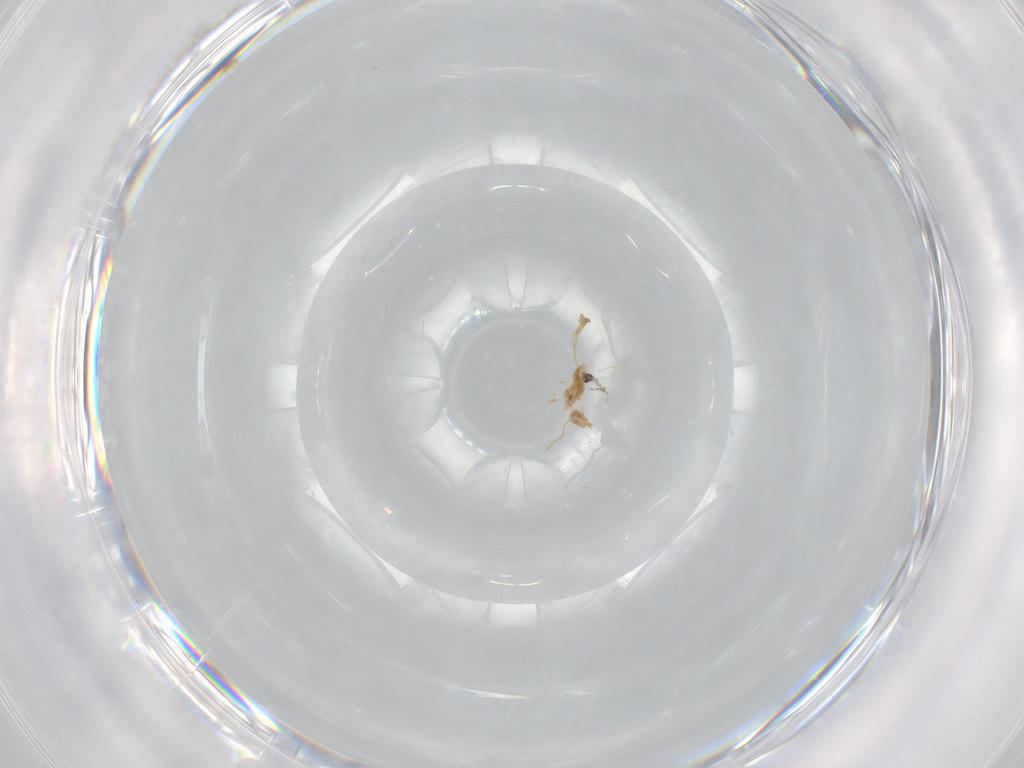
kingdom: Animalia
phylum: Arthropoda
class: Insecta
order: Diptera
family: Cecidomyiidae
